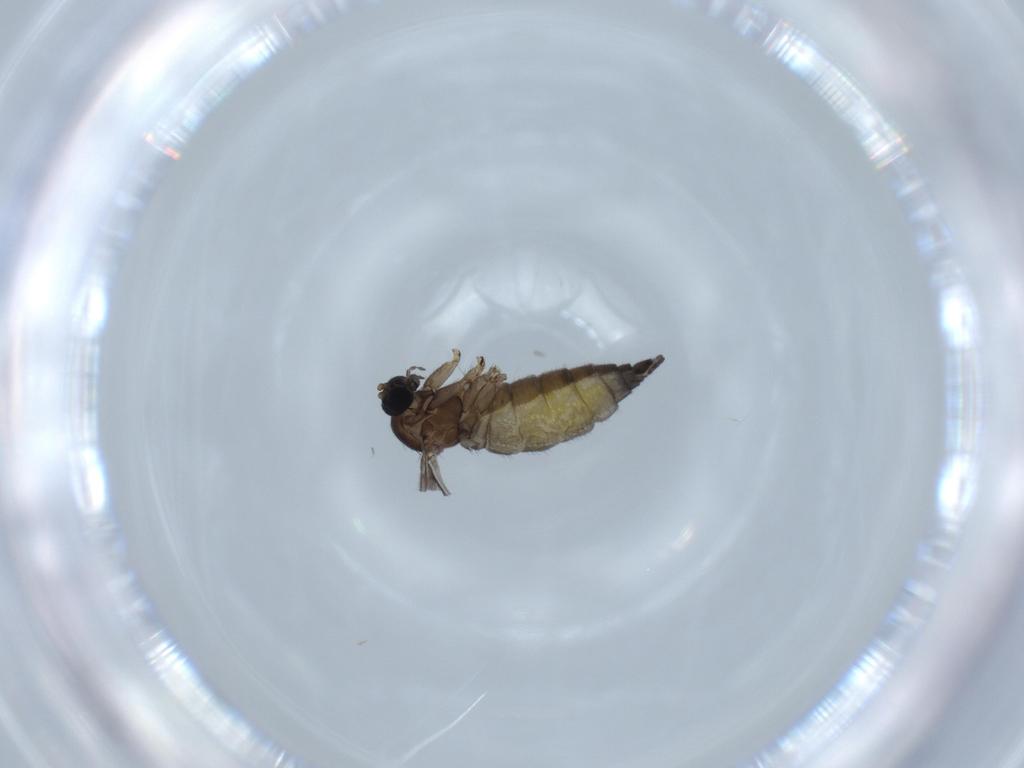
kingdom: Animalia
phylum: Arthropoda
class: Insecta
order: Diptera
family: Sciaridae
